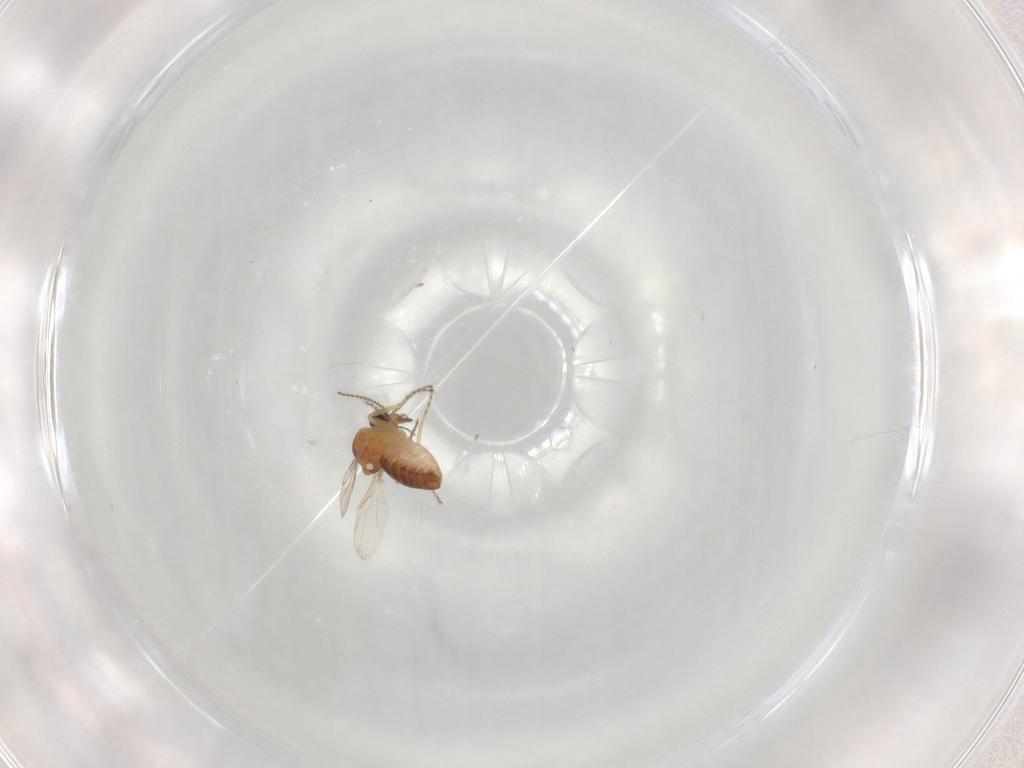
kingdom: Animalia
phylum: Arthropoda
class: Insecta
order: Diptera
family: Ceratopogonidae
